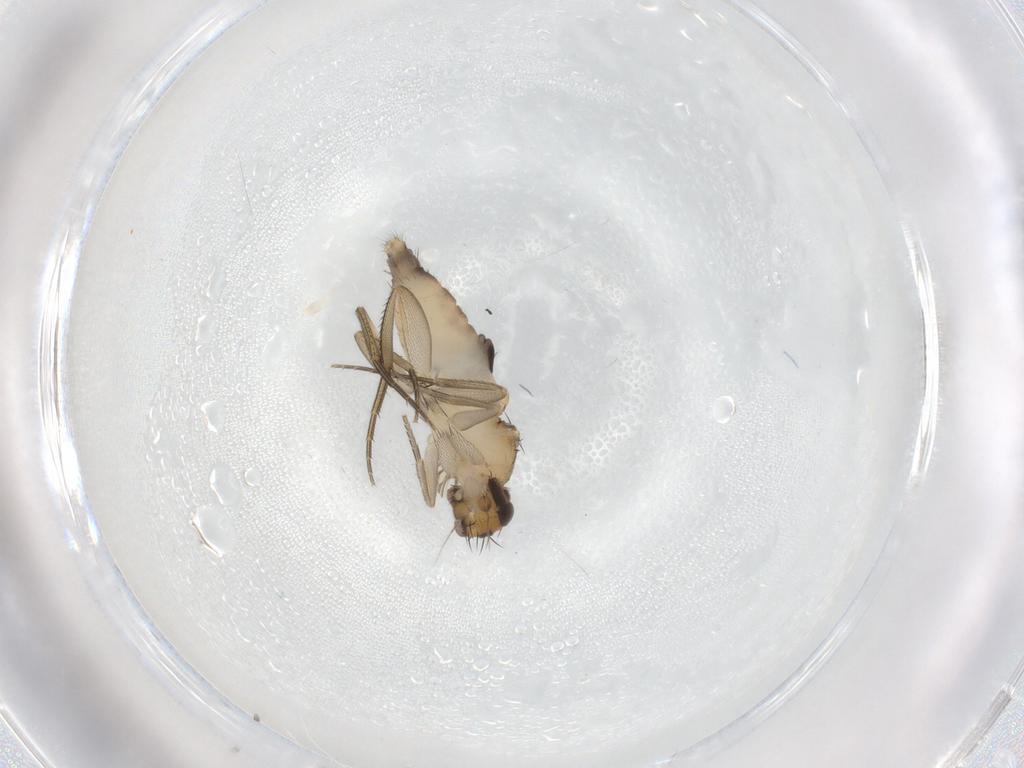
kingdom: Animalia
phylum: Arthropoda
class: Insecta
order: Diptera
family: Phoridae
